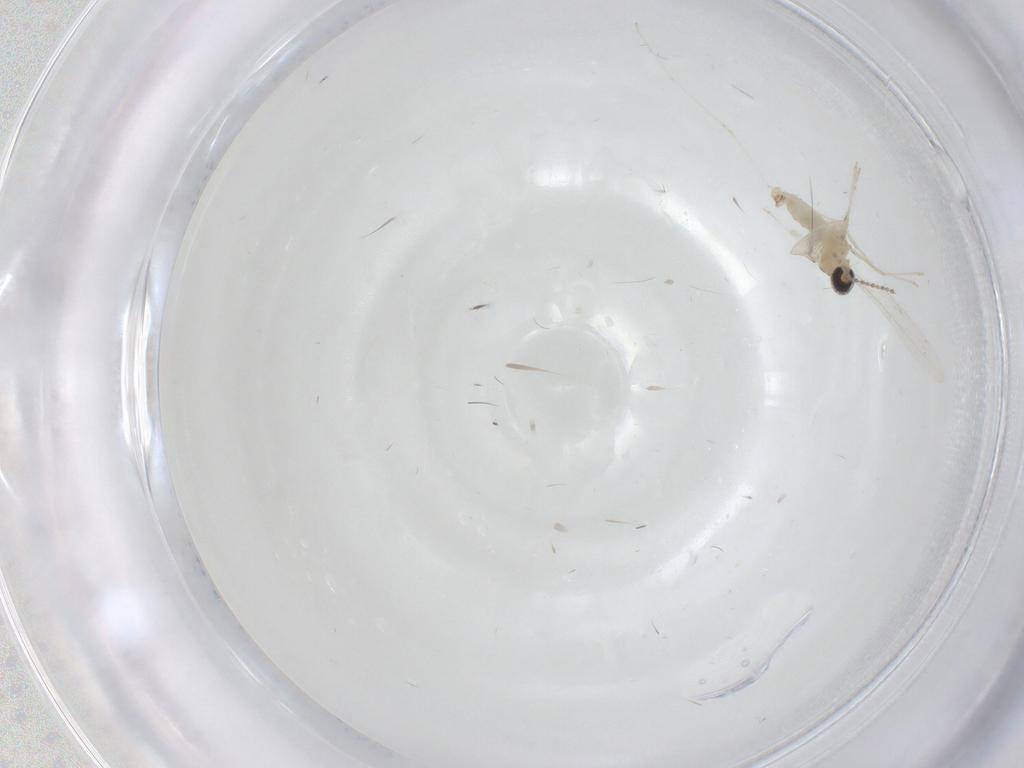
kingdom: Animalia
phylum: Arthropoda
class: Insecta
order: Diptera
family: Cecidomyiidae
